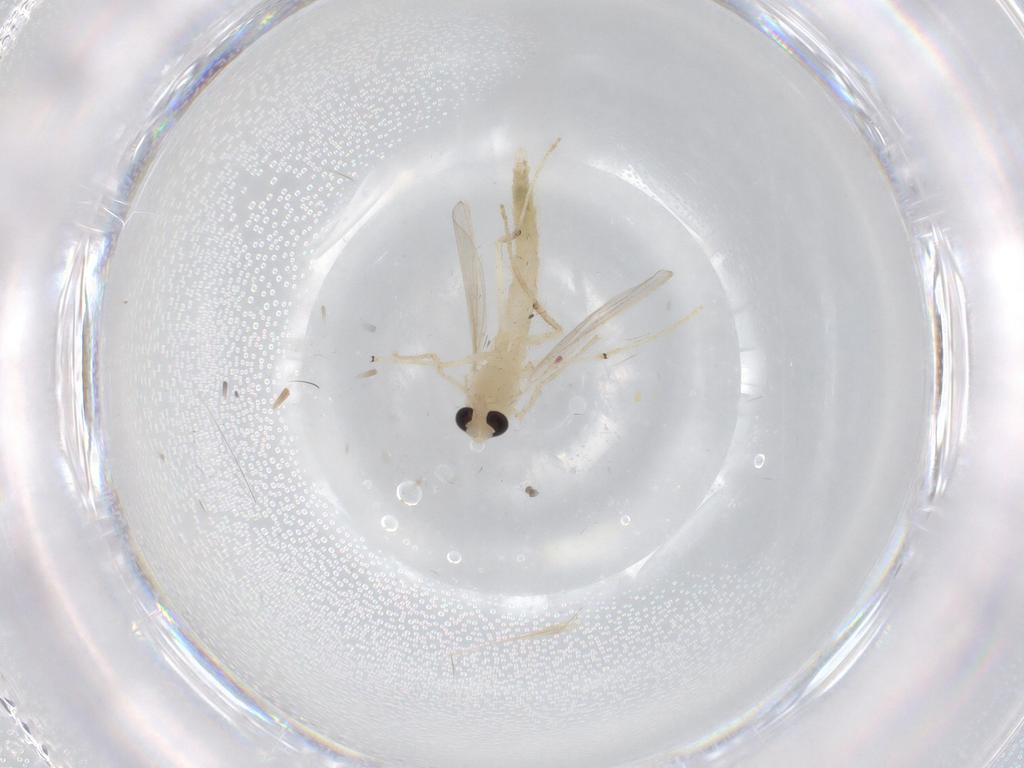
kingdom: Animalia
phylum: Arthropoda
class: Insecta
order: Diptera
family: Chironomidae
